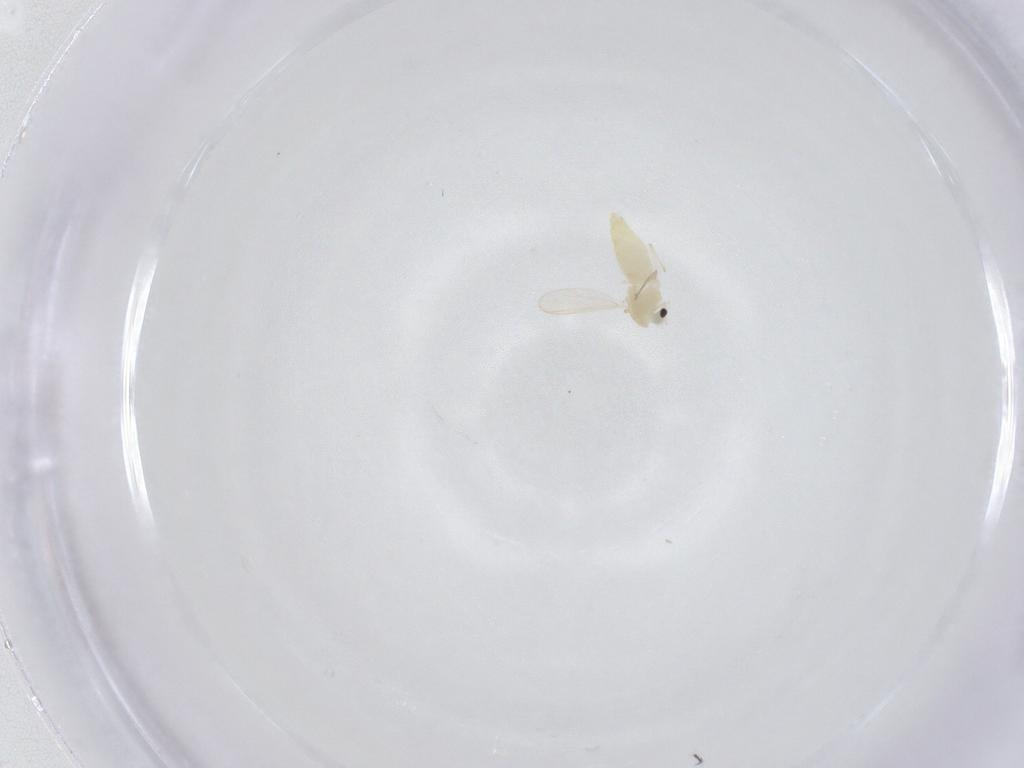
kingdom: Animalia
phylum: Arthropoda
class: Insecta
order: Diptera
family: Chironomidae
